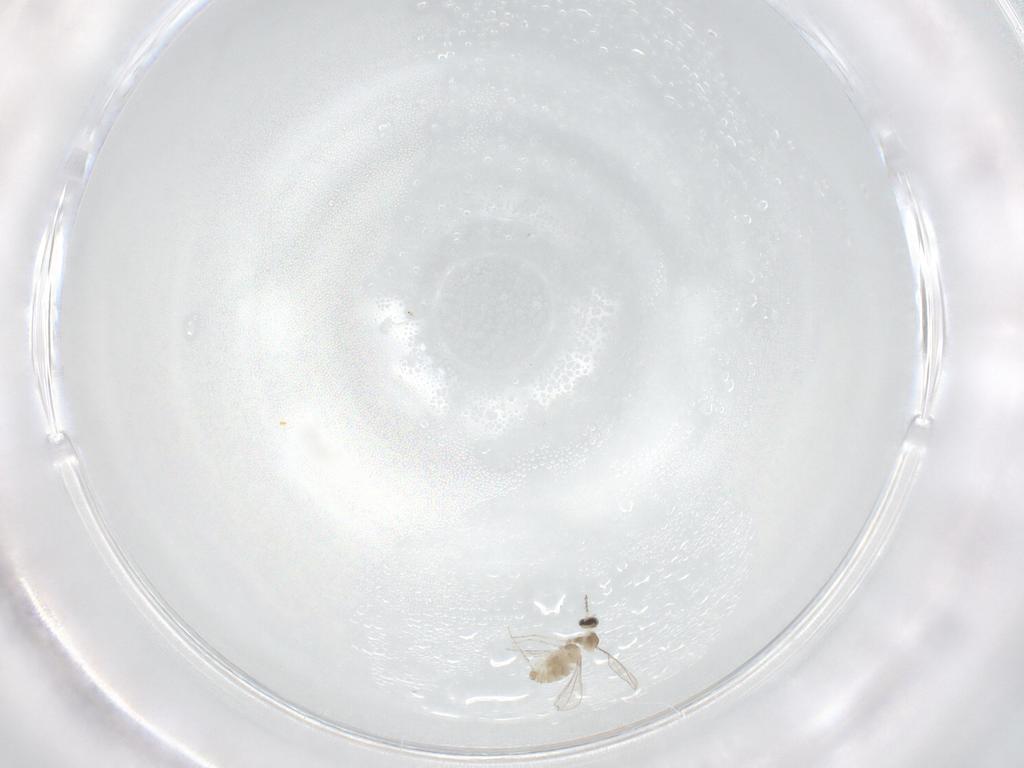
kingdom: Animalia
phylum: Arthropoda
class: Insecta
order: Diptera
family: Cecidomyiidae
